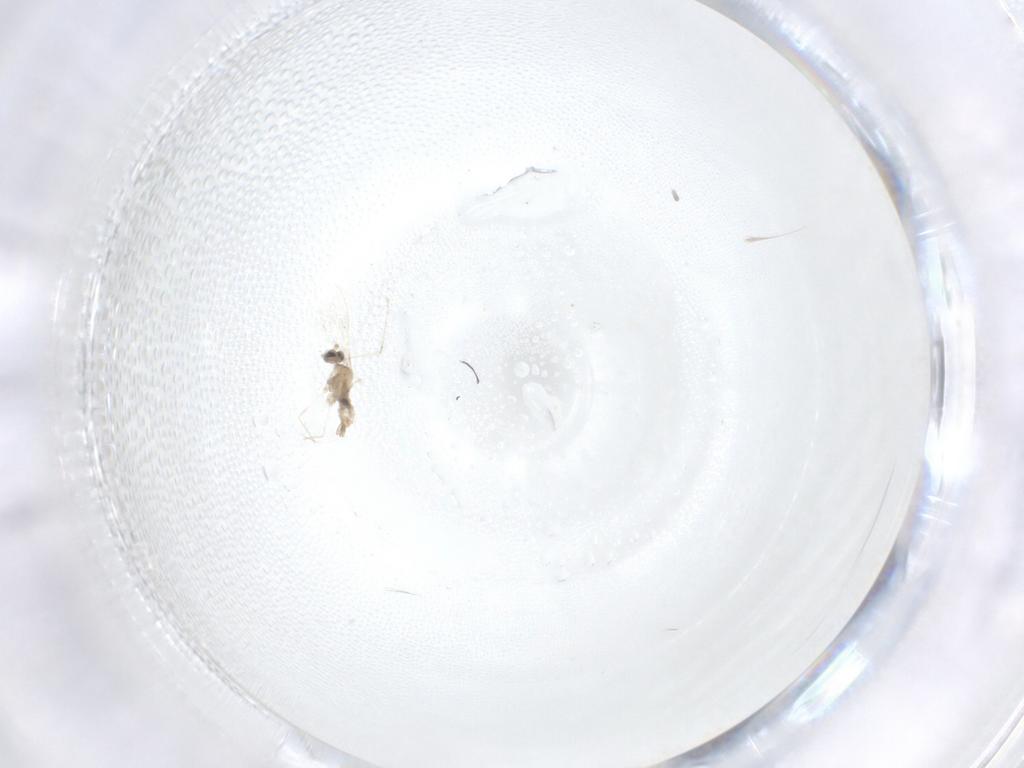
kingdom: Animalia
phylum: Arthropoda
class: Insecta
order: Diptera
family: Cecidomyiidae
